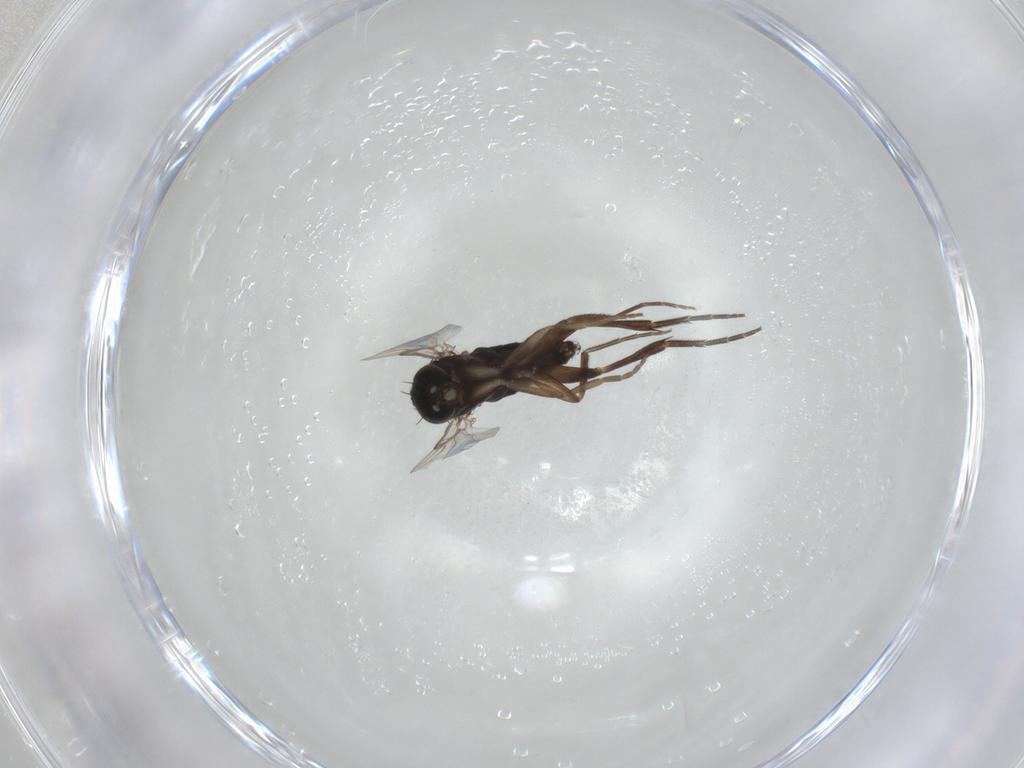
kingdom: Animalia
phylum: Arthropoda
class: Insecta
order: Diptera
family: Phoridae
